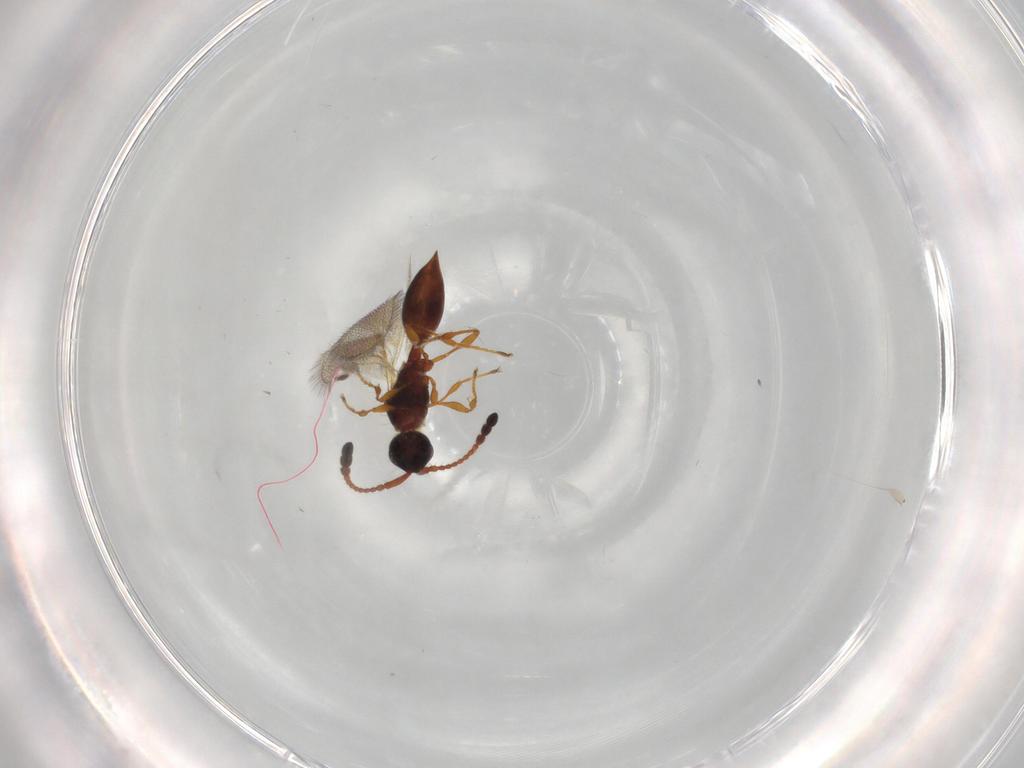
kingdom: Animalia
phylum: Arthropoda
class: Insecta
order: Hymenoptera
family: Diapriidae
